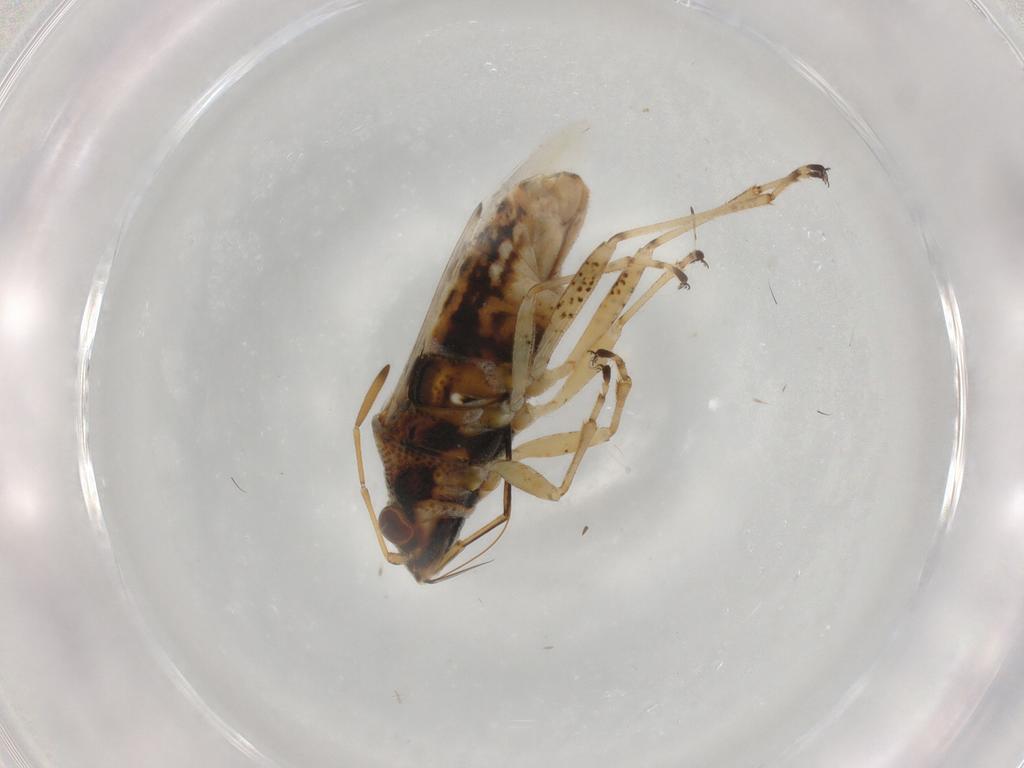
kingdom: Animalia
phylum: Arthropoda
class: Insecta
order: Hemiptera
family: Lygaeidae
